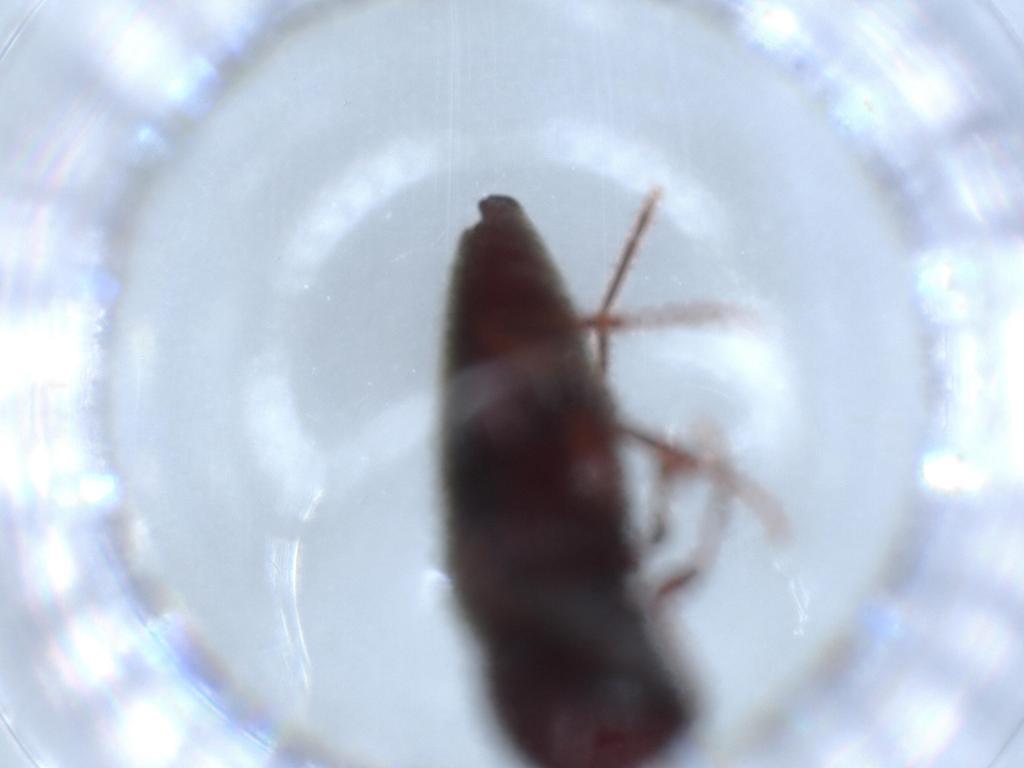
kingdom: Animalia
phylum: Arthropoda
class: Insecta
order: Coleoptera
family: Eucnemidae
